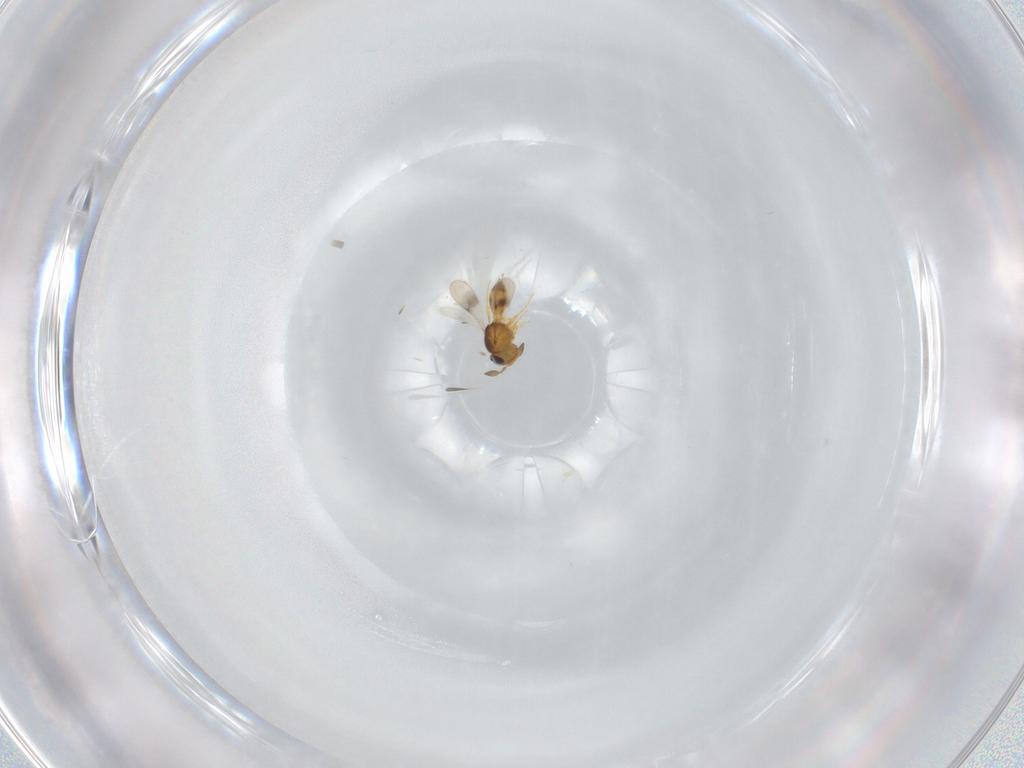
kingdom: Animalia
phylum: Arthropoda
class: Insecta
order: Hymenoptera
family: Scelionidae
